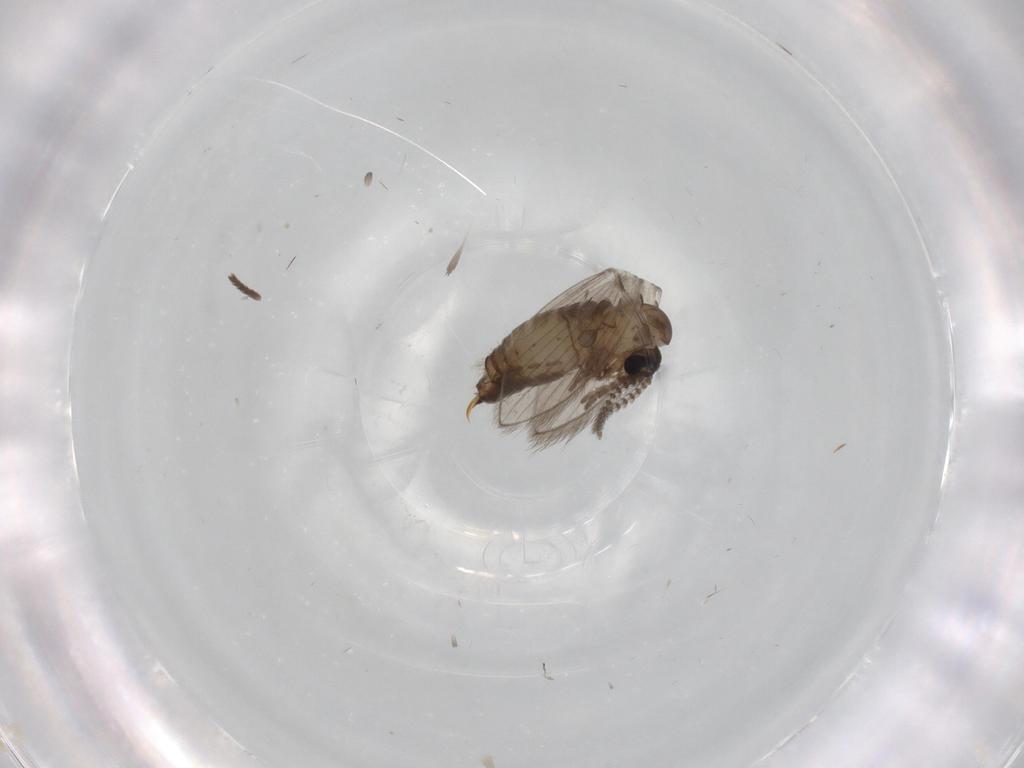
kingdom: Animalia
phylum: Arthropoda
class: Insecta
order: Diptera
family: Psychodidae
